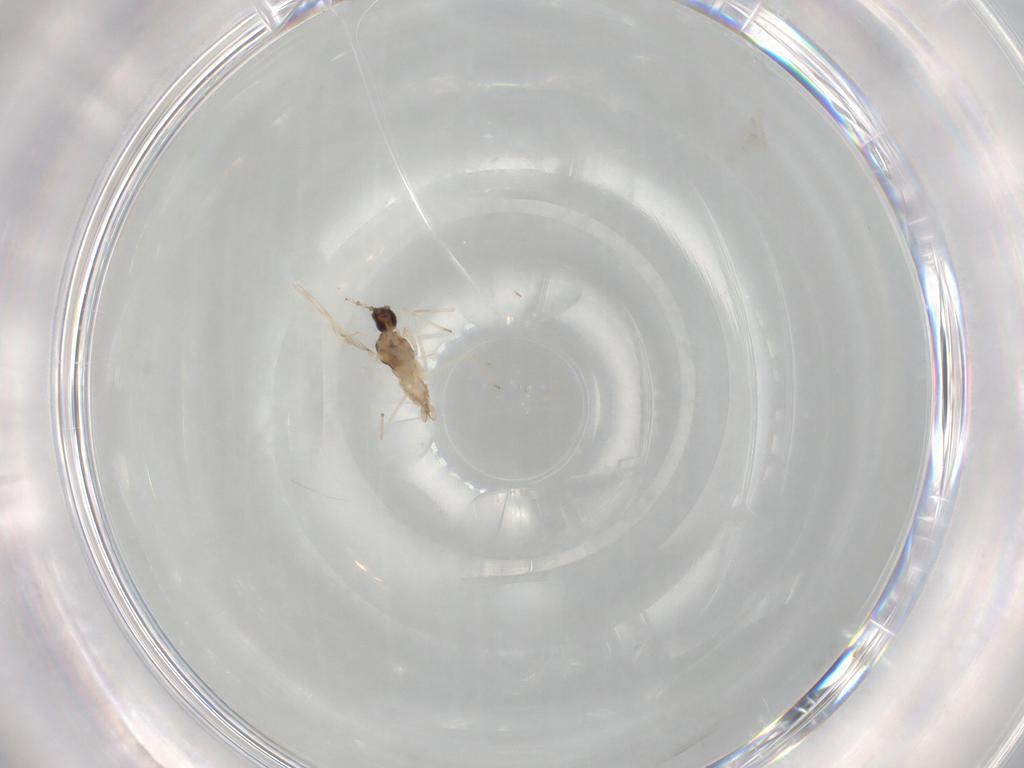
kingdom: Animalia
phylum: Arthropoda
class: Insecta
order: Diptera
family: Cecidomyiidae
